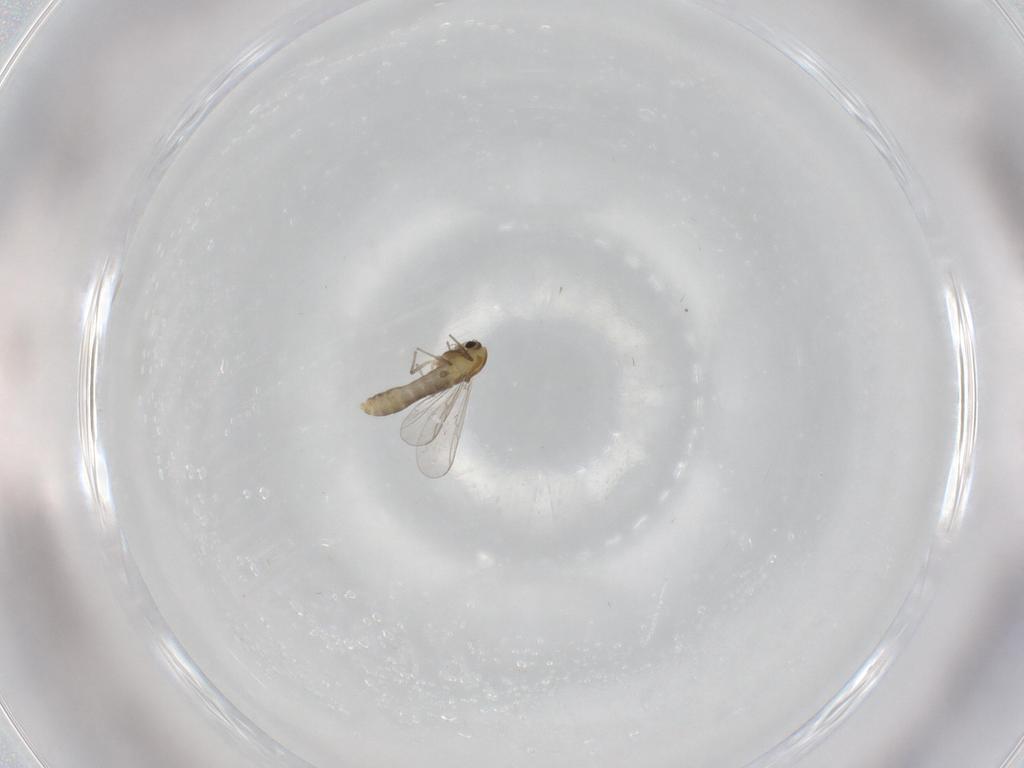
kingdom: Animalia
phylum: Arthropoda
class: Insecta
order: Diptera
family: Chironomidae
